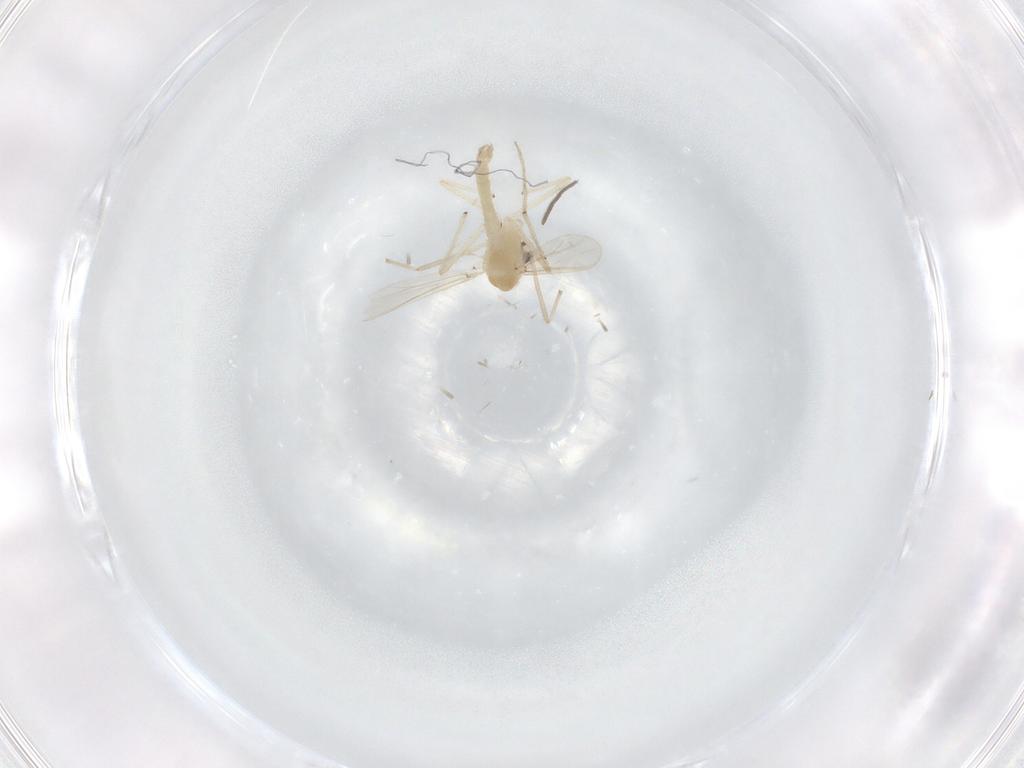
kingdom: Animalia
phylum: Arthropoda
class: Insecta
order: Diptera
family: Chironomidae
